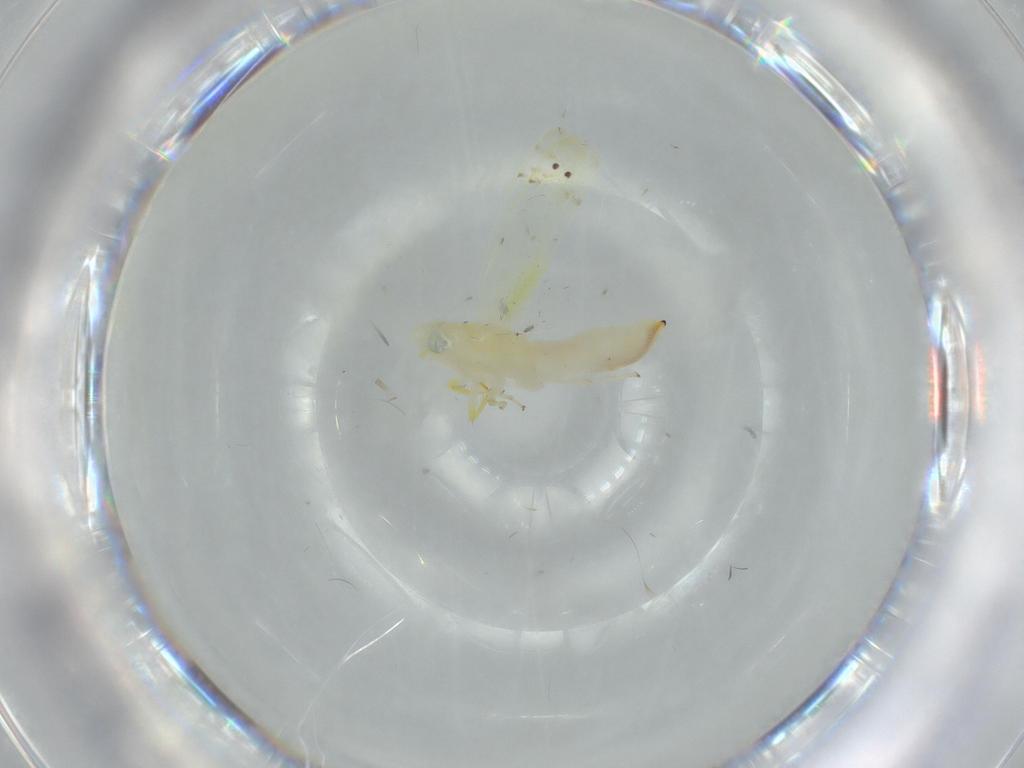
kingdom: Animalia
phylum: Arthropoda
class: Insecta
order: Hemiptera
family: Cicadellidae
